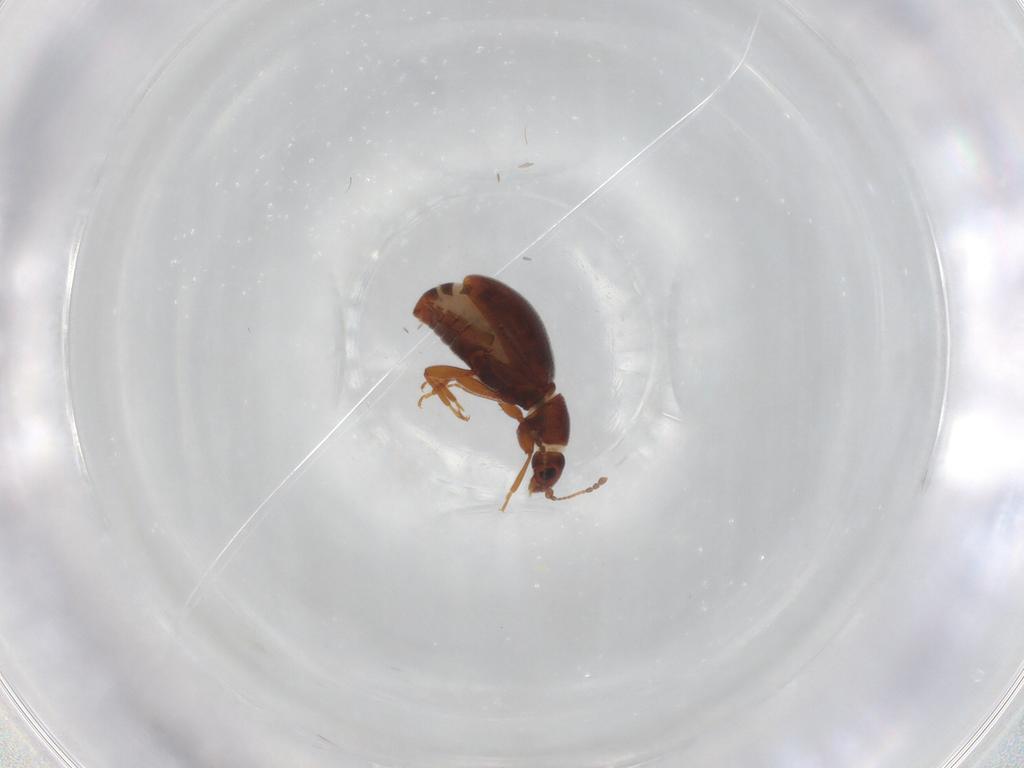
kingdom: Animalia
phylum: Arthropoda
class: Insecta
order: Coleoptera
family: Latridiidae
